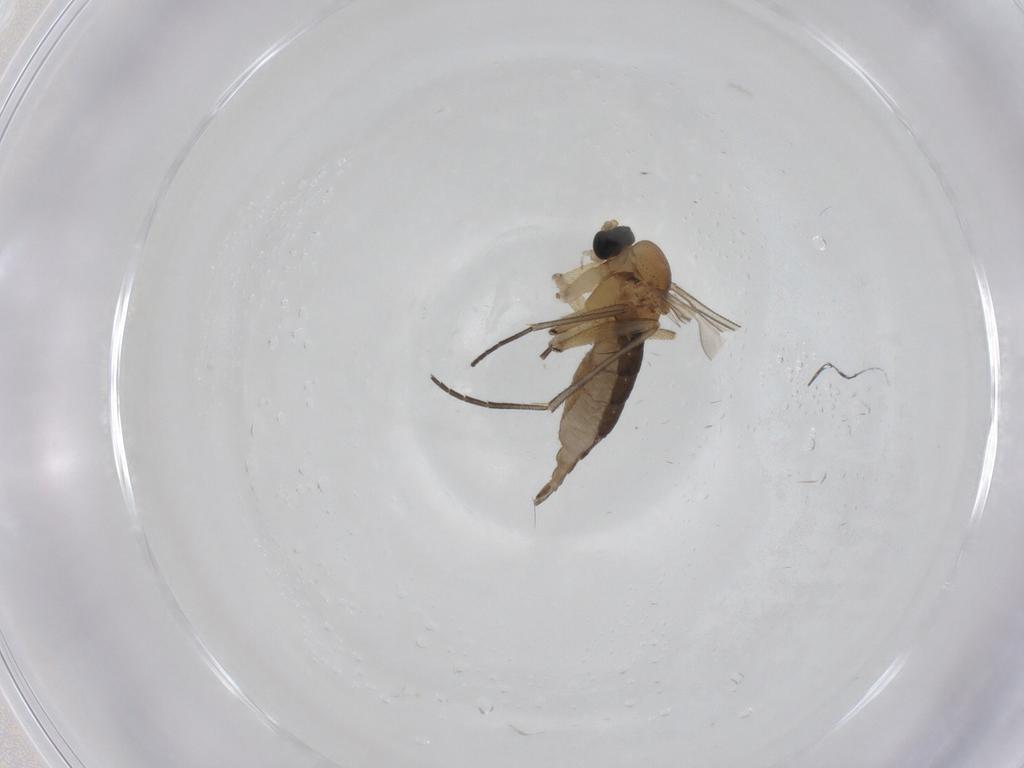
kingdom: Animalia
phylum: Arthropoda
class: Insecta
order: Diptera
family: Sciaridae
